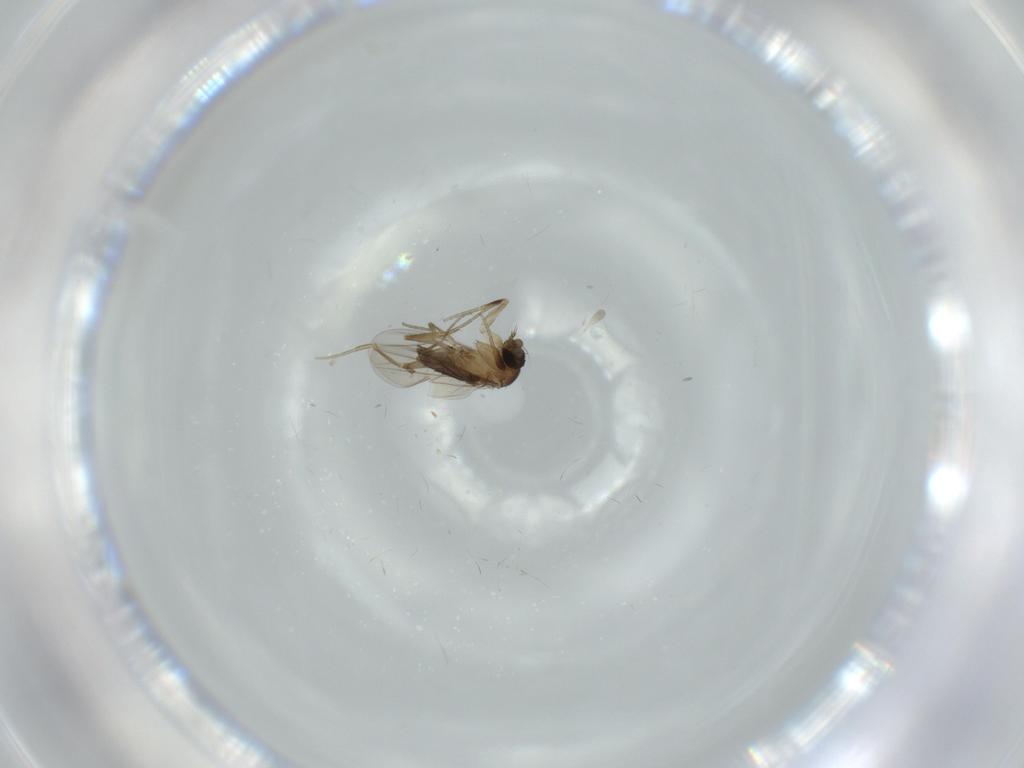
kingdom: Animalia
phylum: Arthropoda
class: Insecta
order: Diptera
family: Phoridae
